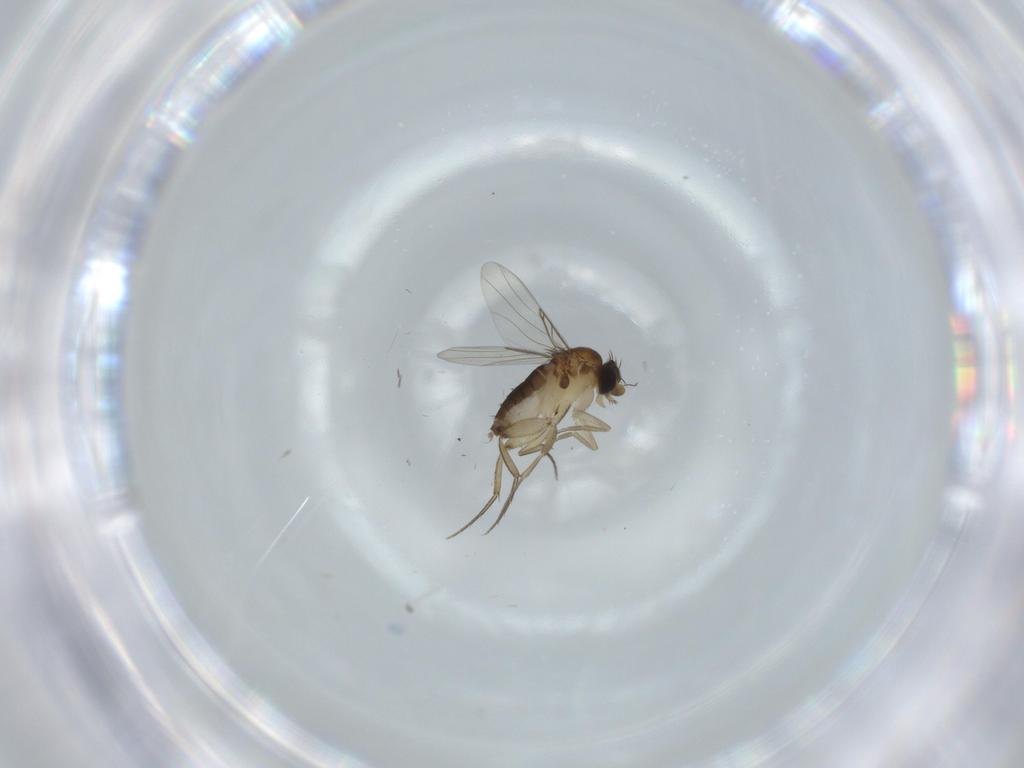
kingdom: Animalia
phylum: Arthropoda
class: Insecta
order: Diptera
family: Phoridae
